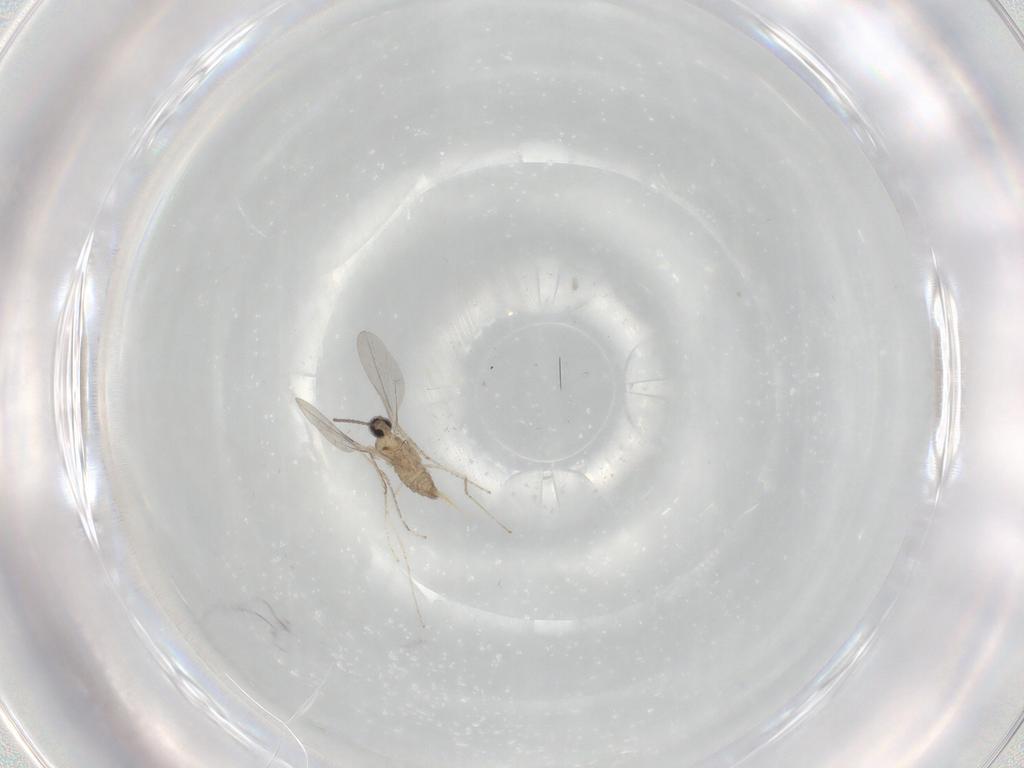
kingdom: Animalia
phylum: Arthropoda
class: Insecta
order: Diptera
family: Cecidomyiidae
